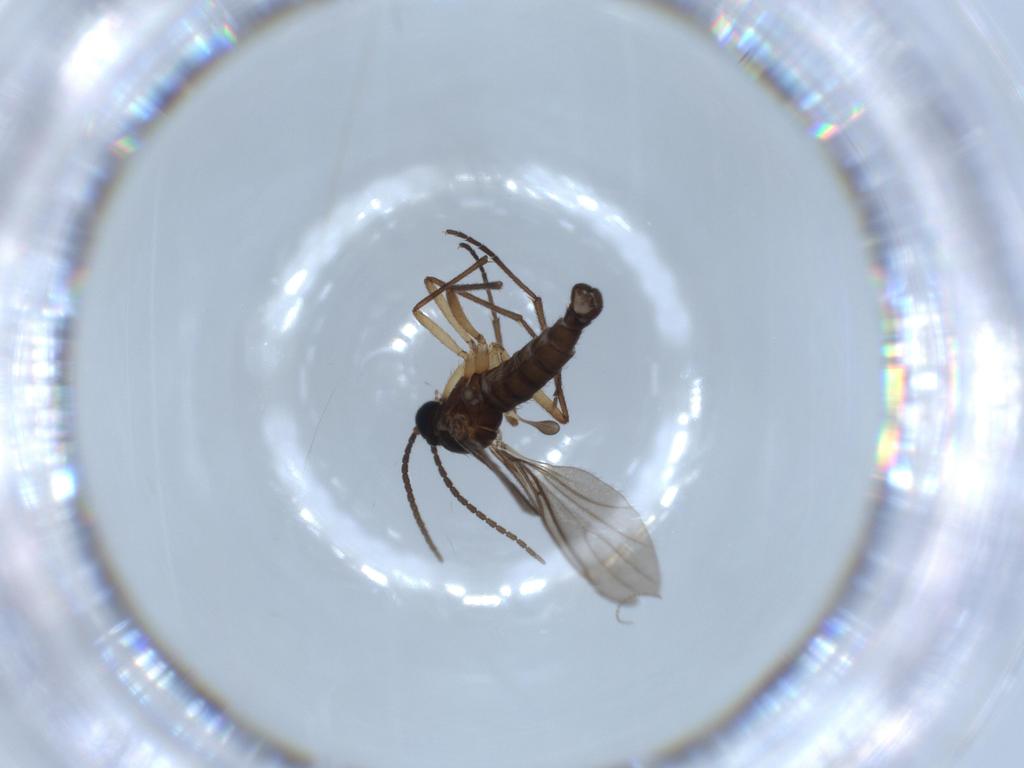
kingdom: Animalia
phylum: Arthropoda
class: Insecta
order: Diptera
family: Sciaridae
